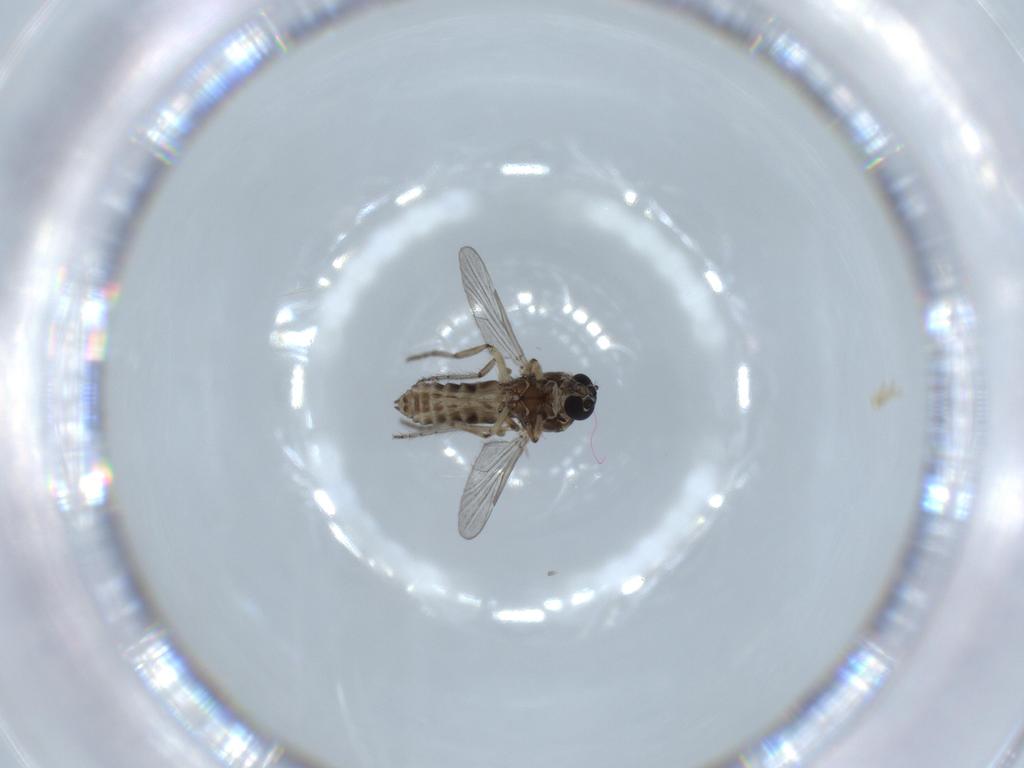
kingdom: Animalia
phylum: Arthropoda
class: Insecta
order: Diptera
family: Ceratopogonidae
